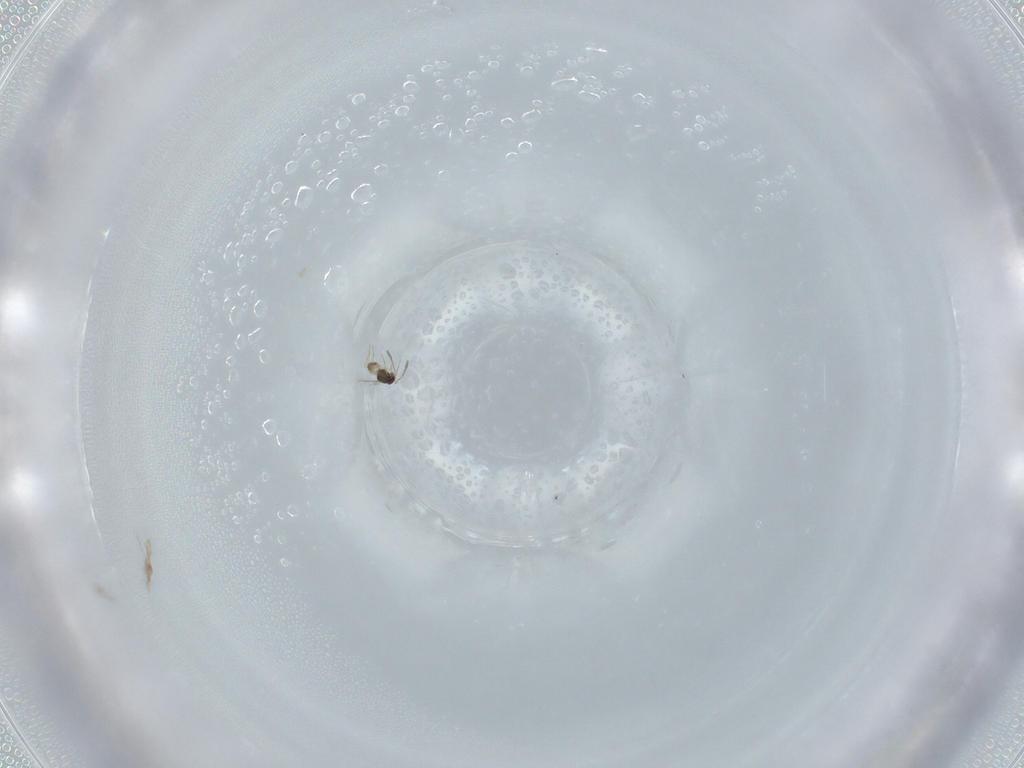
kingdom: Animalia
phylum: Arthropoda
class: Insecta
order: Hymenoptera
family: Mymaridae
